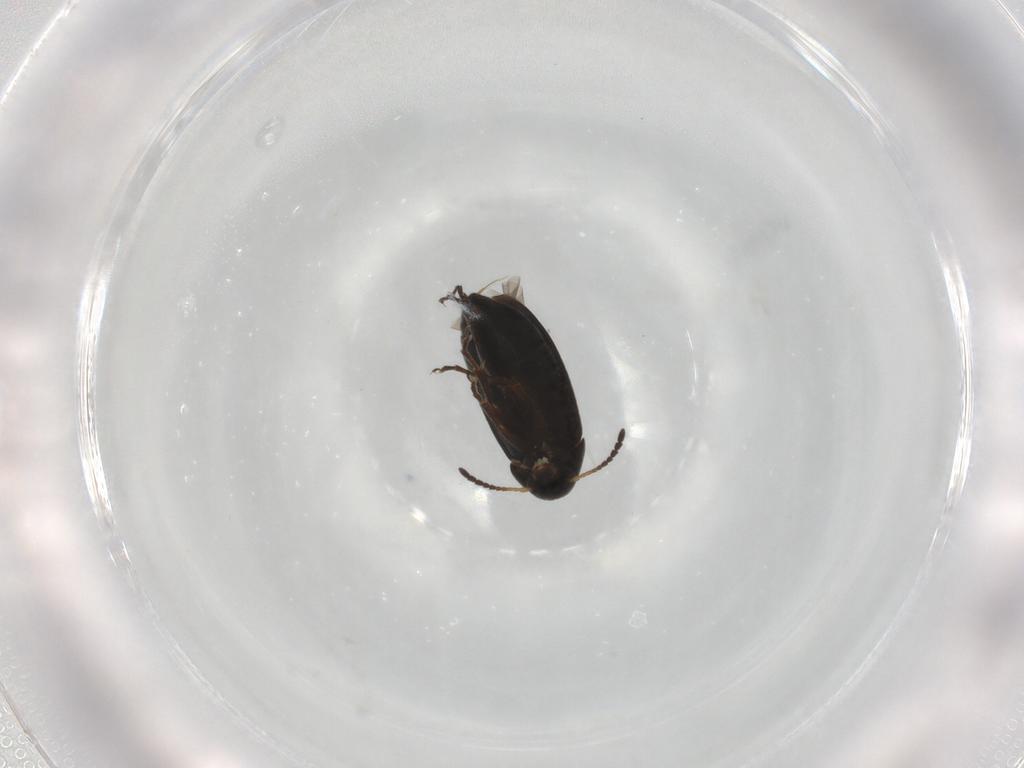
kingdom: Animalia
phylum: Arthropoda
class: Insecta
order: Coleoptera
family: Scraptiidae
